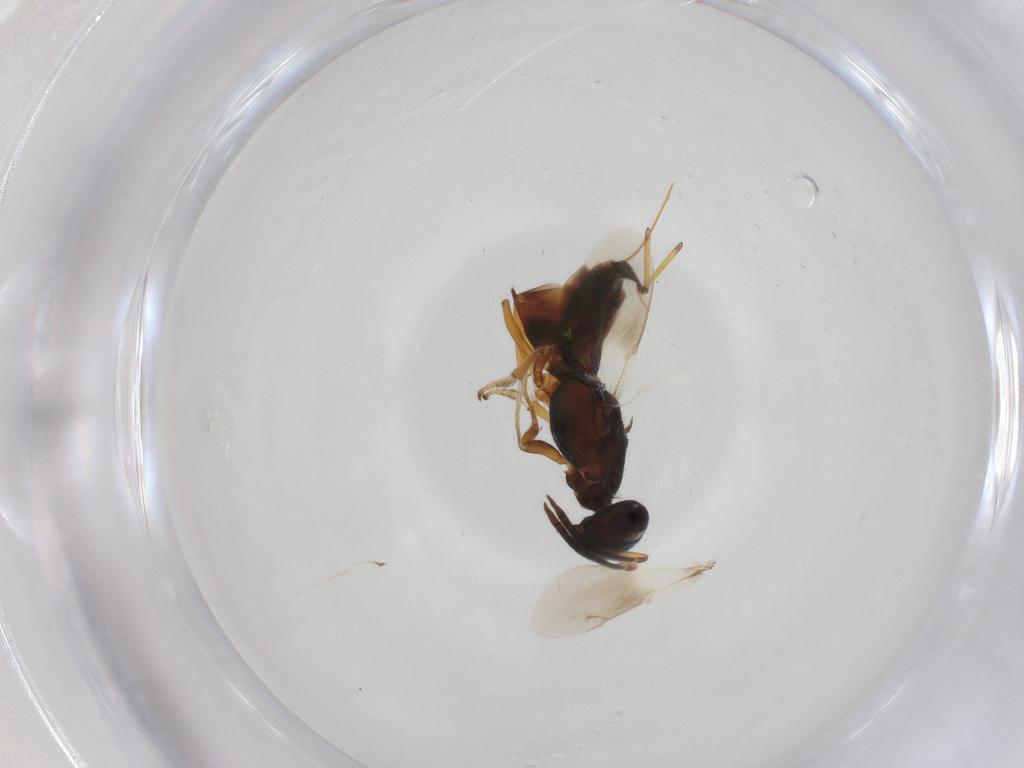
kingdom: Animalia
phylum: Arthropoda
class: Insecta
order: Hymenoptera
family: Eupelmidae
